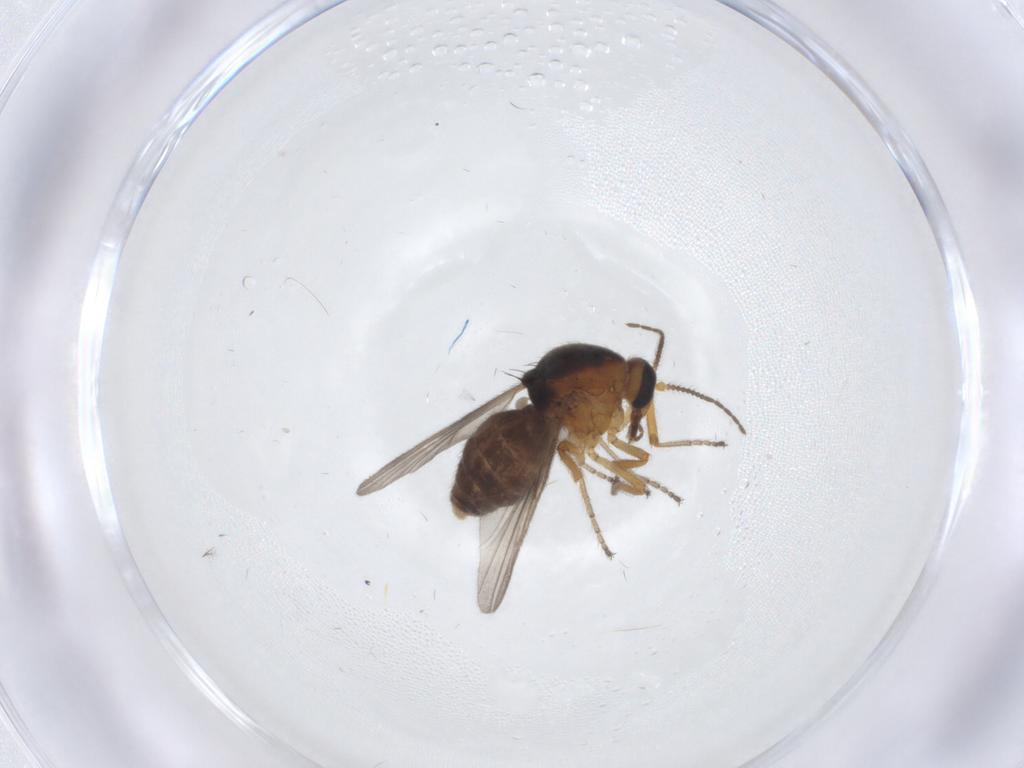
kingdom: Animalia
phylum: Arthropoda
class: Insecta
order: Diptera
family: Ceratopogonidae
